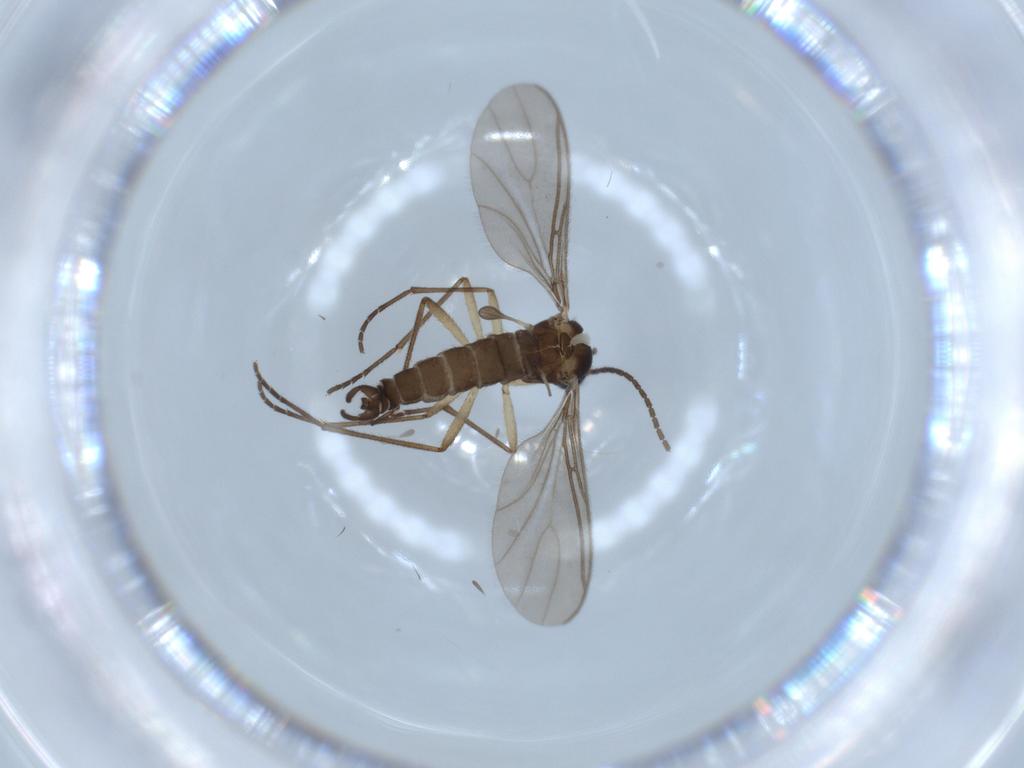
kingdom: Animalia
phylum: Arthropoda
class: Insecta
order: Diptera
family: Sciaridae
